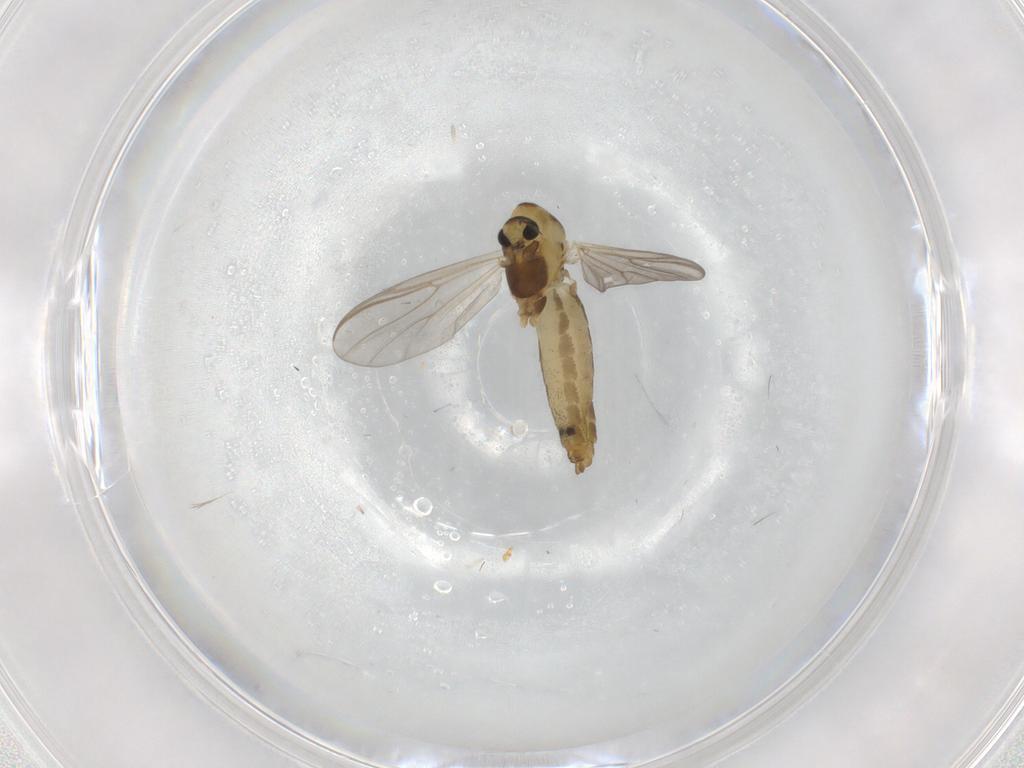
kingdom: Animalia
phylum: Arthropoda
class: Insecta
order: Diptera
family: Chironomidae
